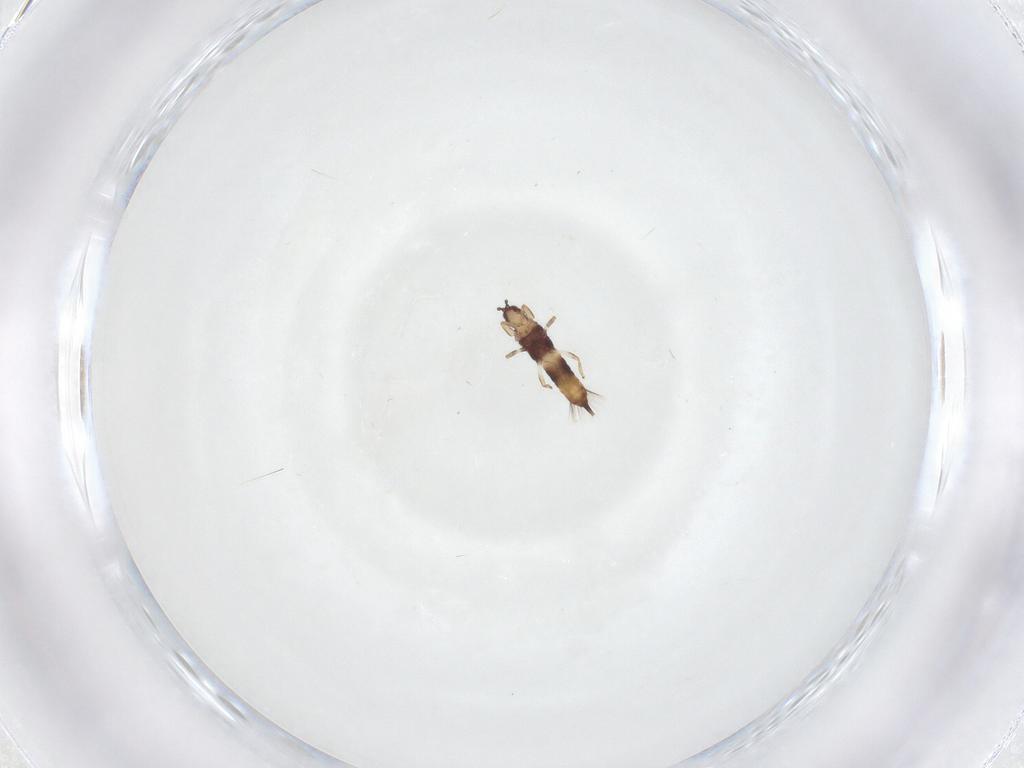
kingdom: Animalia
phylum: Arthropoda
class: Insecta
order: Thysanoptera
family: Phlaeothripidae
